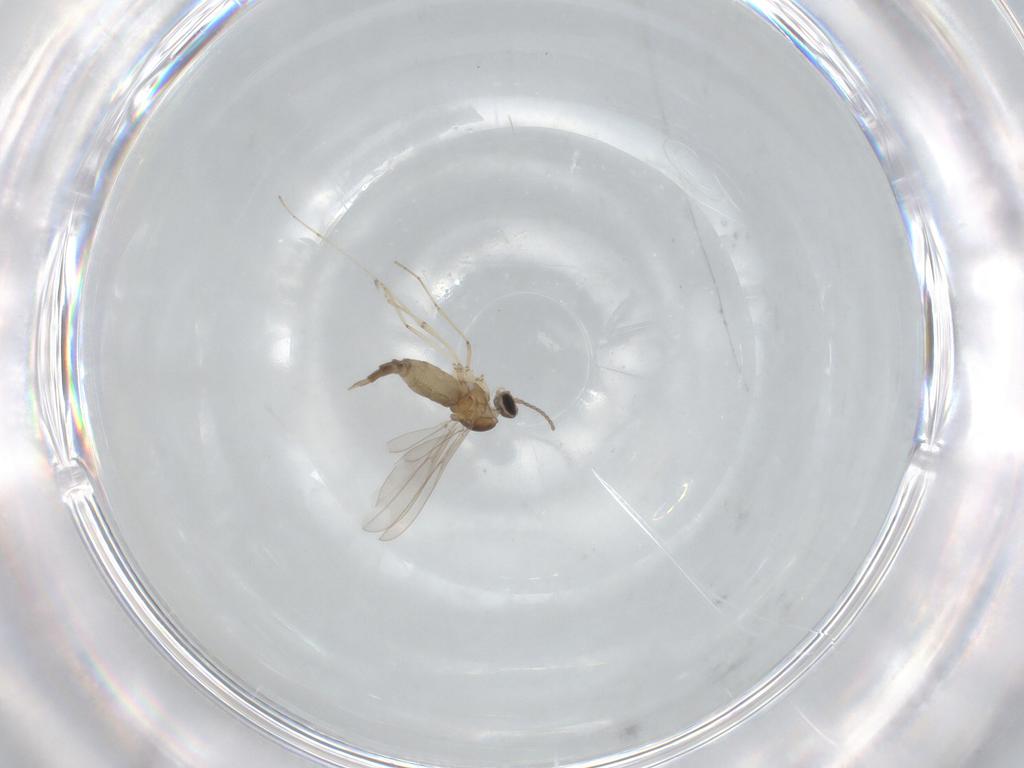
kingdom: Animalia
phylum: Arthropoda
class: Insecta
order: Diptera
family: Cecidomyiidae
